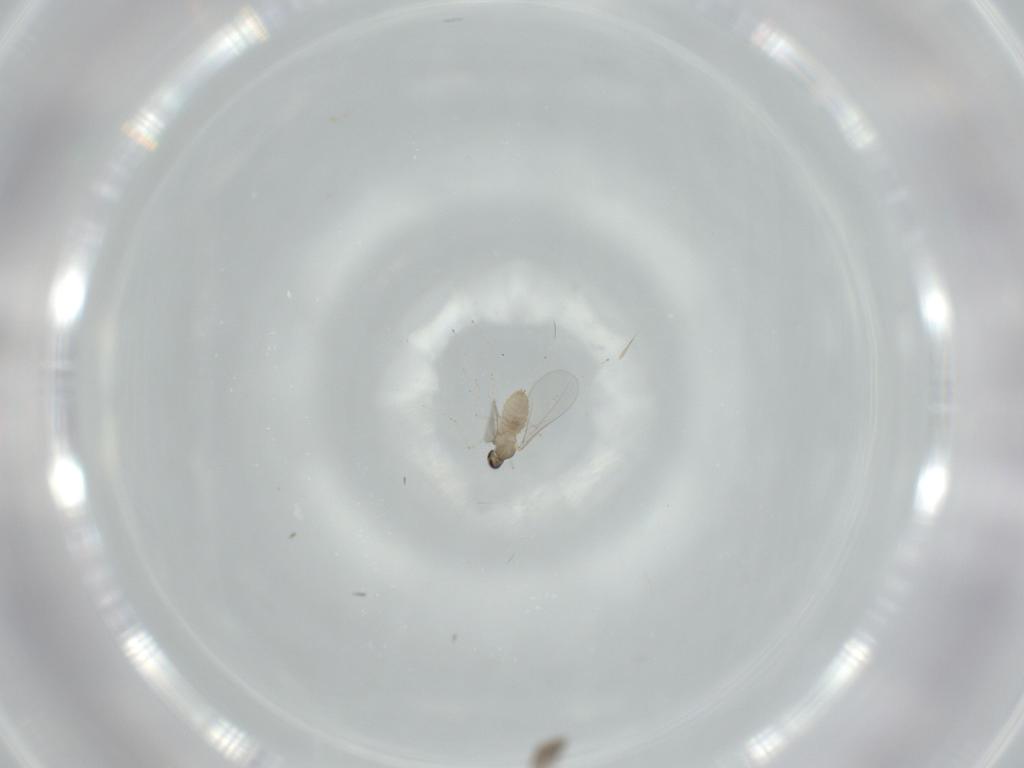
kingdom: Animalia
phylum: Arthropoda
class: Insecta
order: Diptera
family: Cecidomyiidae
